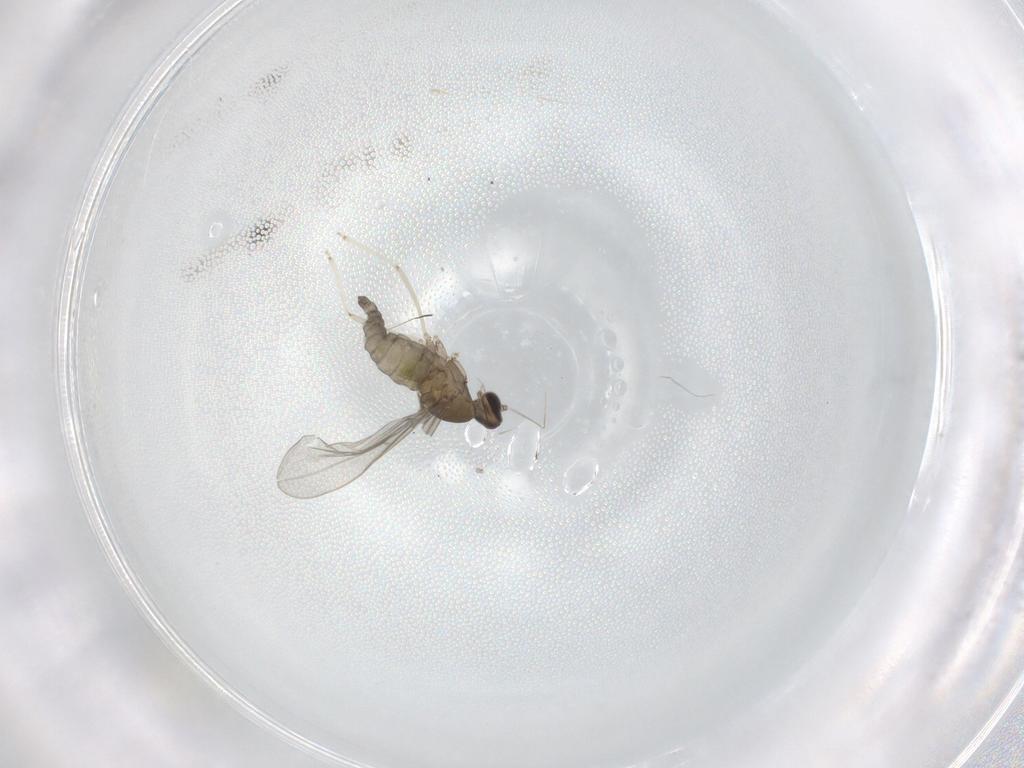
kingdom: Animalia
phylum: Arthropoda
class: Insecta
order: Diptera
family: Cecidomyiidae
